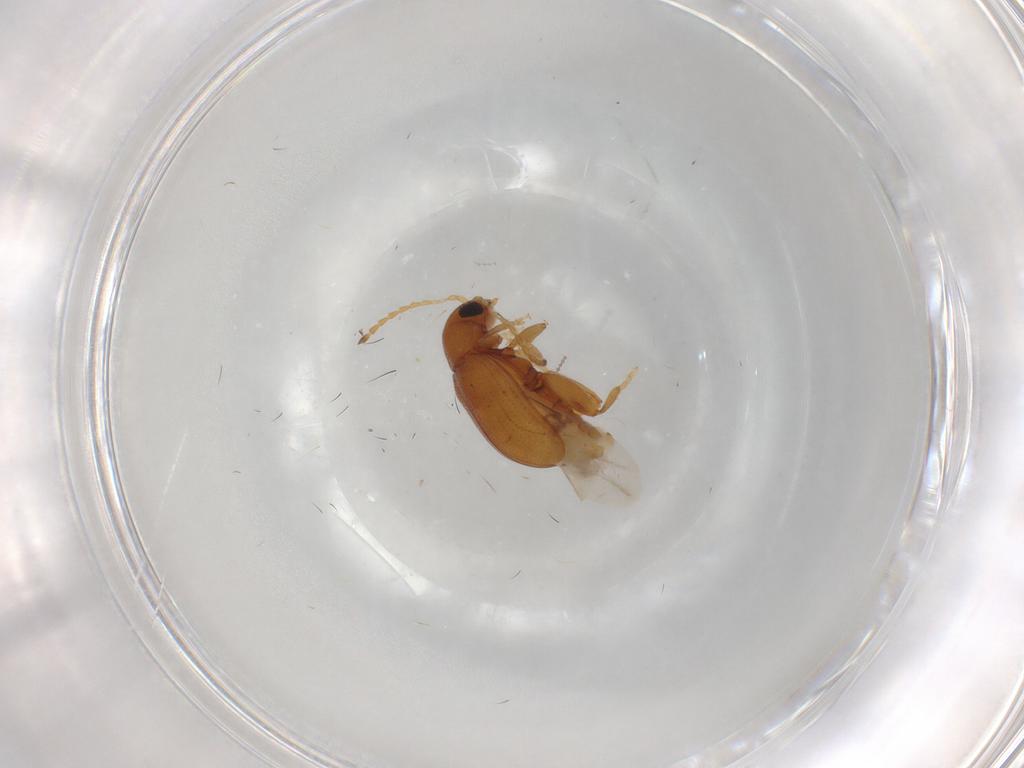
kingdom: Animalia
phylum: Arthropoda
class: Insecta
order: Coleoptera
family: Chrysomelidae
